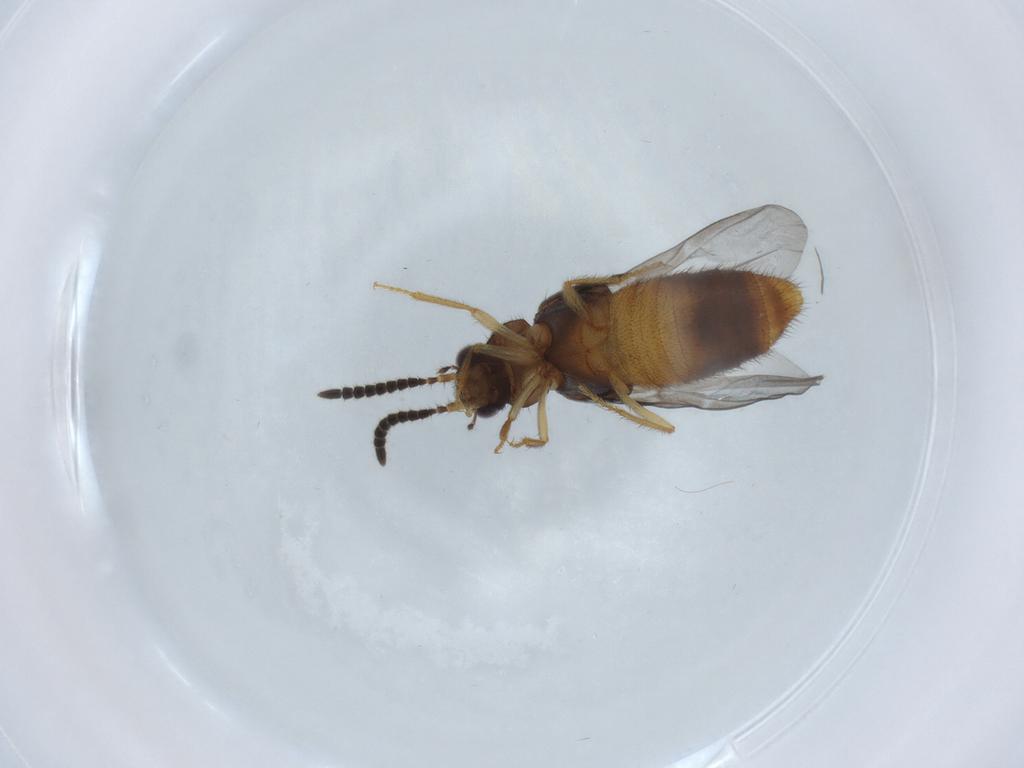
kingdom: Animalia
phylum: Arthropoda
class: Insecta
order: Coleoptera
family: Staphylinidae
